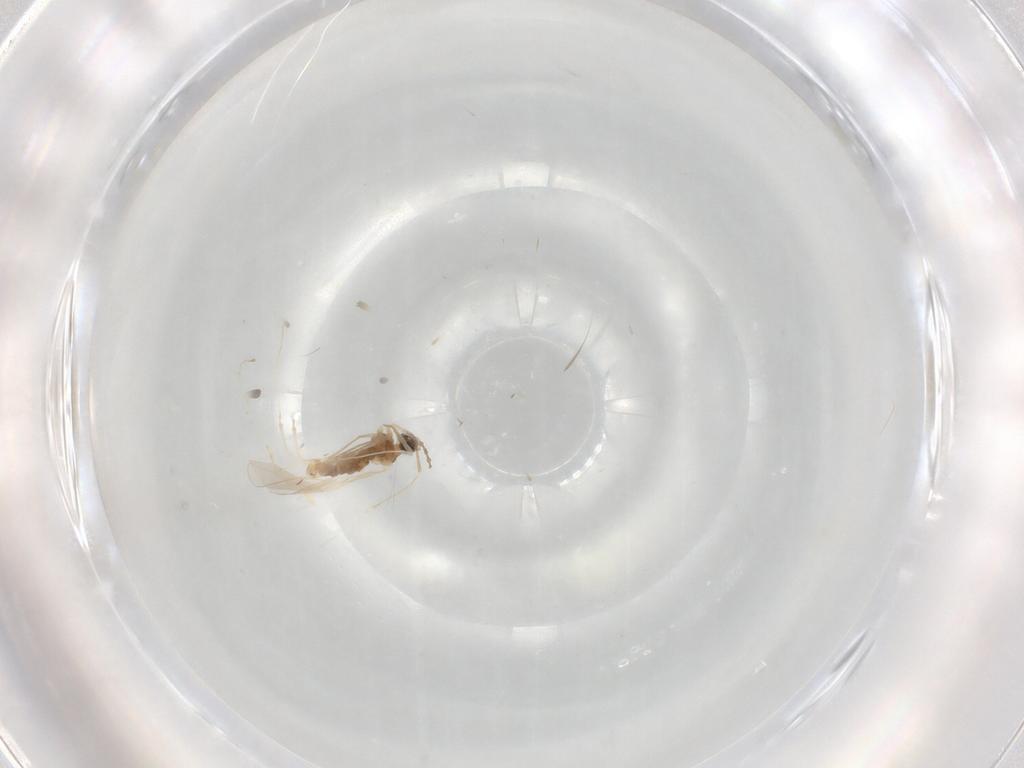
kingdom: Animalia
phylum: Arthropoda
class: Insecta
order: Diptera
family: Cecidomyiidae
